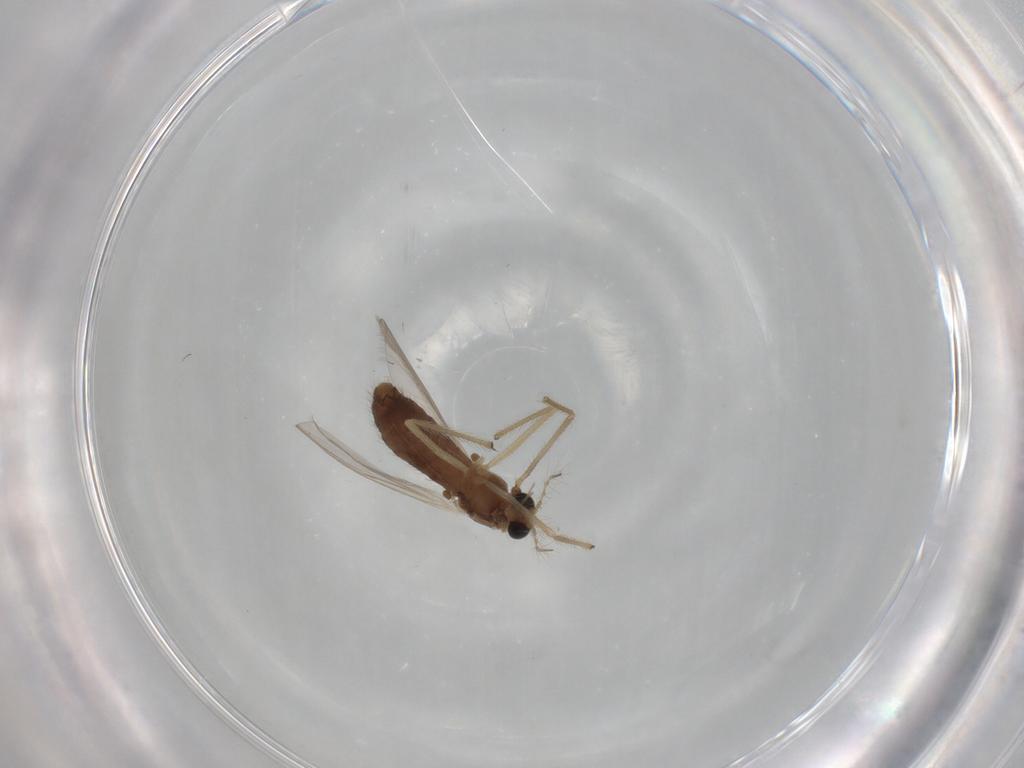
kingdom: Animalia
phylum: Arthropoda
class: Insecta
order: Diptera
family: Chironomidae
